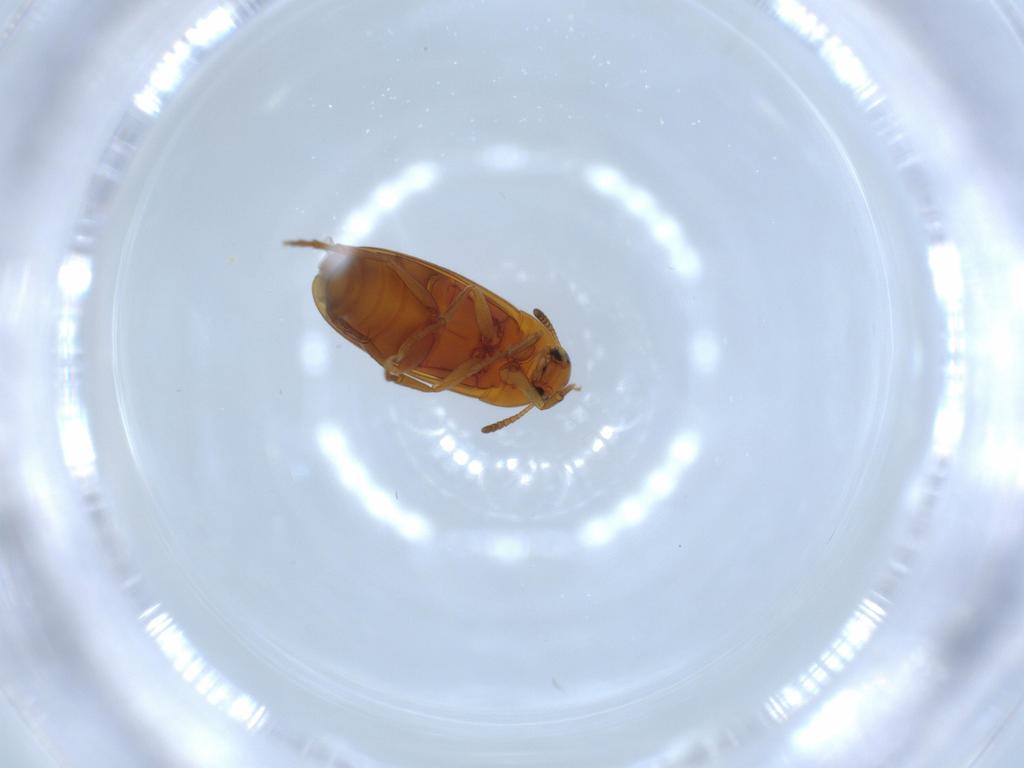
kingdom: Animalia
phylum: Arthropoda
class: Insecta
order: Coleoptera
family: Scraptiidae
